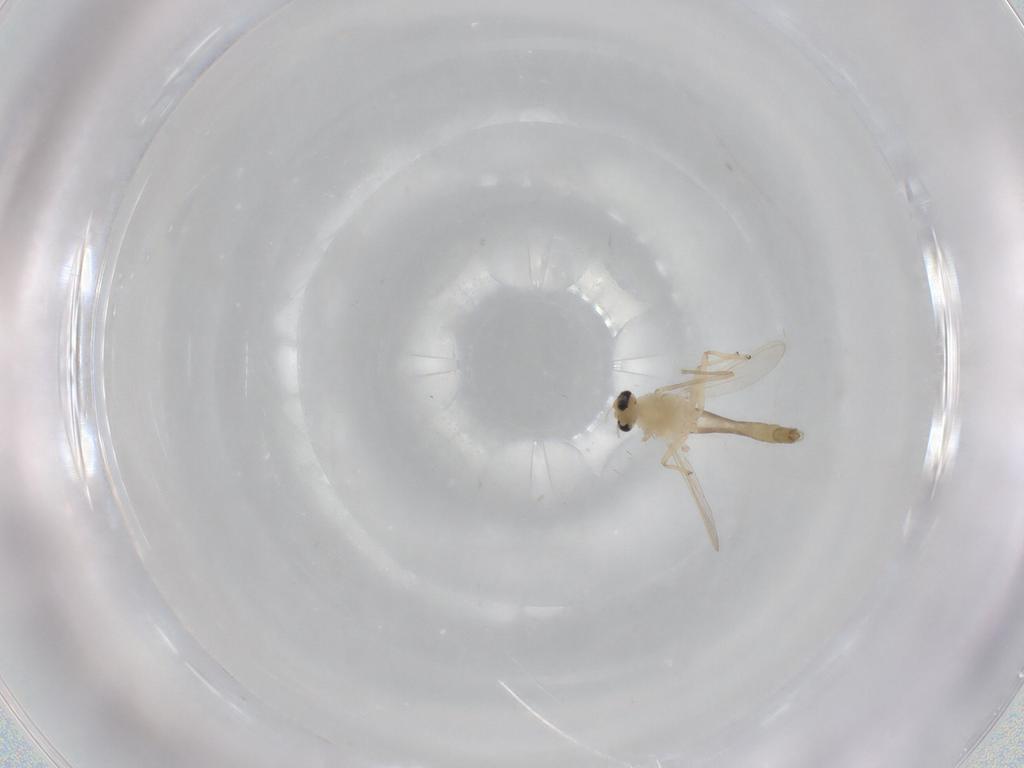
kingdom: Animalia
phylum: Arthropoda
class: Insecta
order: Diptera
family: Chironomidae
